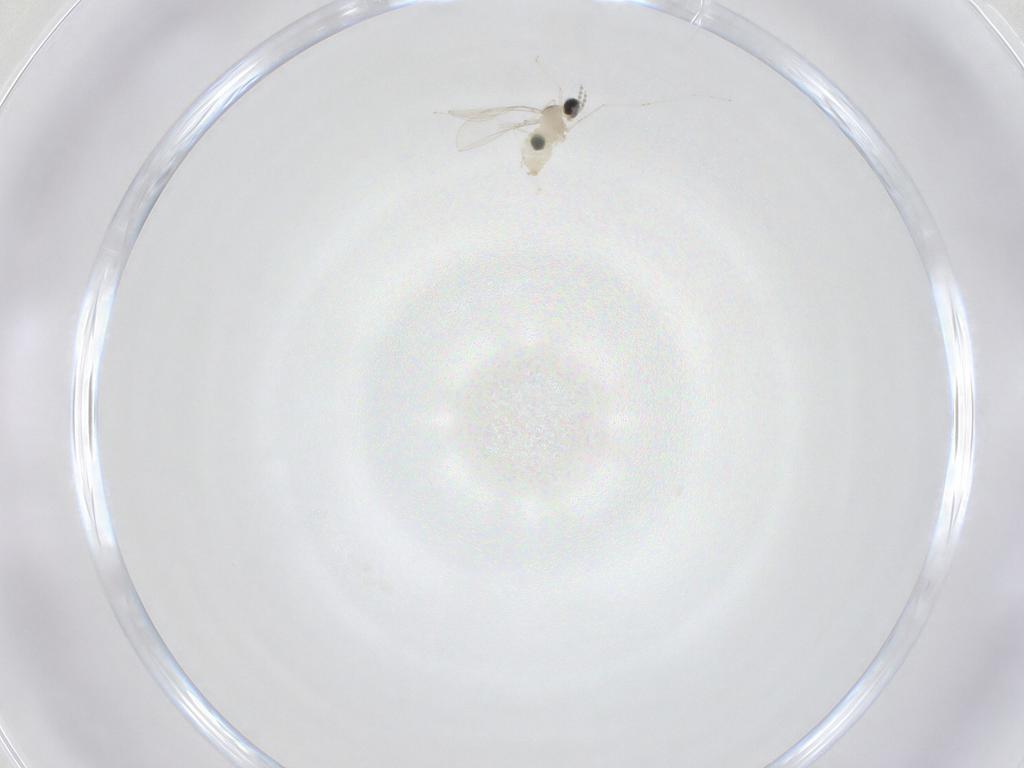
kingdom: Animalia
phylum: Arthropoda
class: Insecta
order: Diptera
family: Cecidomyiidae
